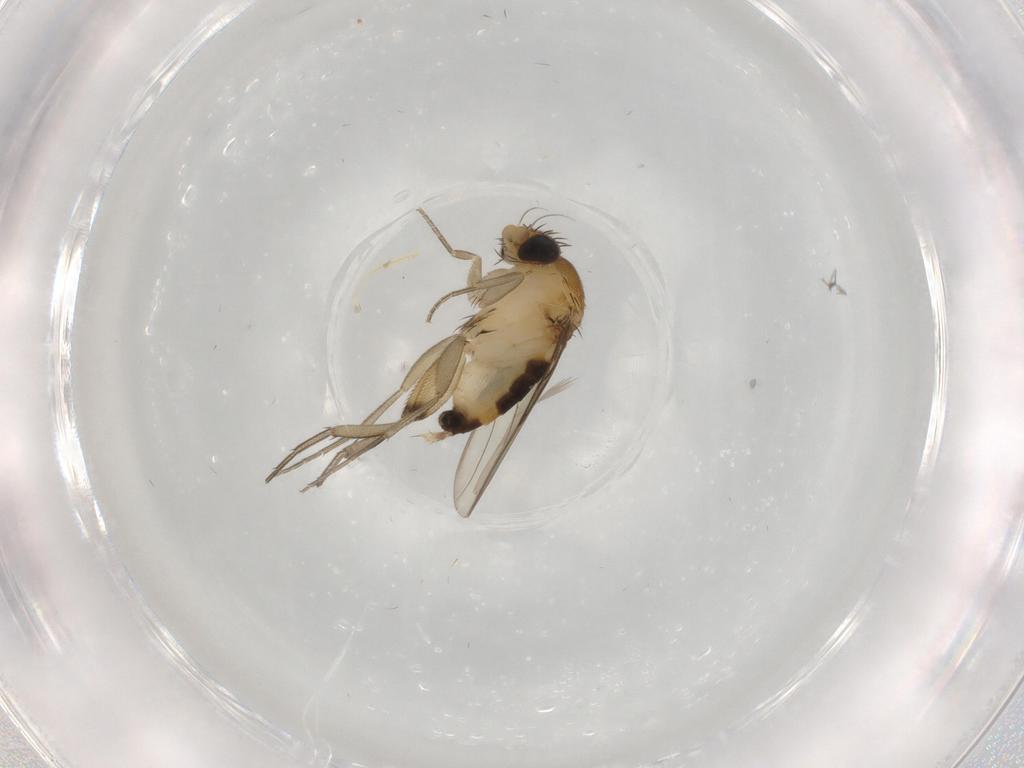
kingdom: Animalia
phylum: Arthropoda
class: Insecta
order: Diptera
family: Phoridae
